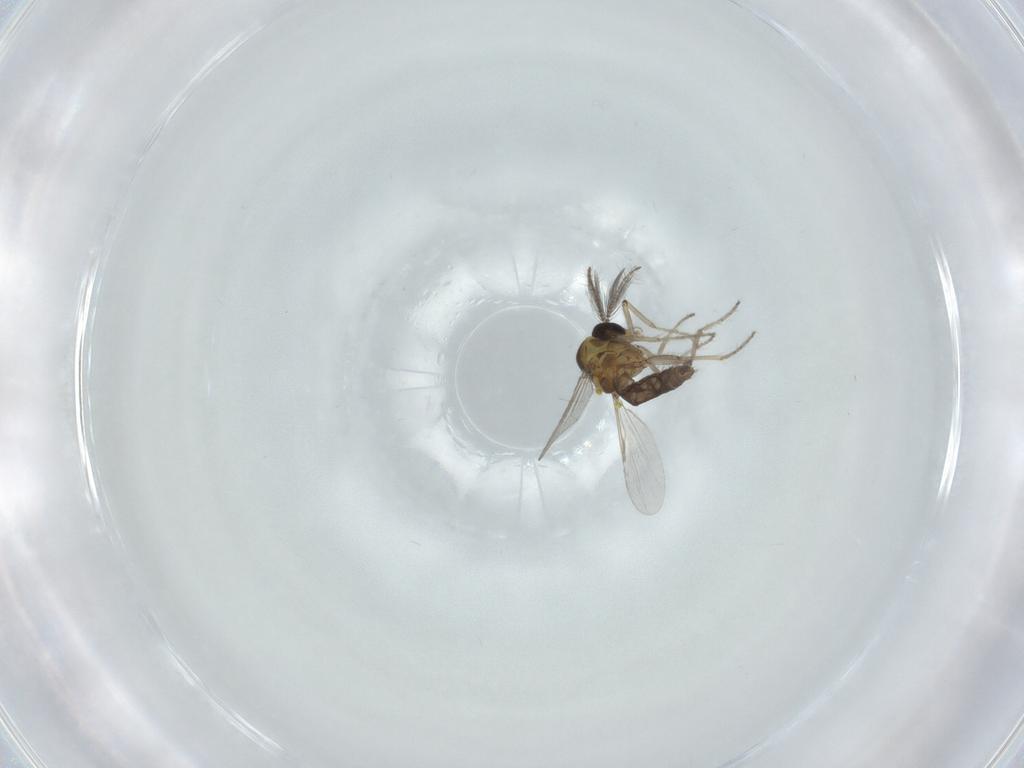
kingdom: Animalia
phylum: Arthropoda
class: Insecta
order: Diptera
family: Ceratopogonidae
